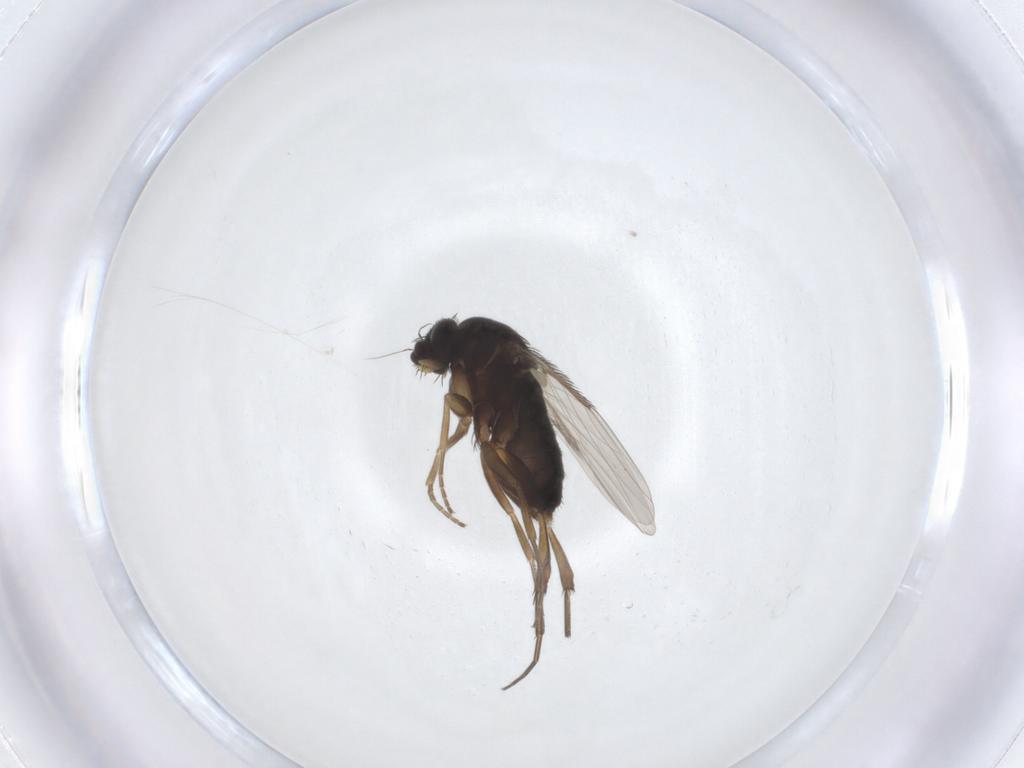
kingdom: Animalia
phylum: Arthropoda
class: Insecta
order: Diptera
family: Phoridae
